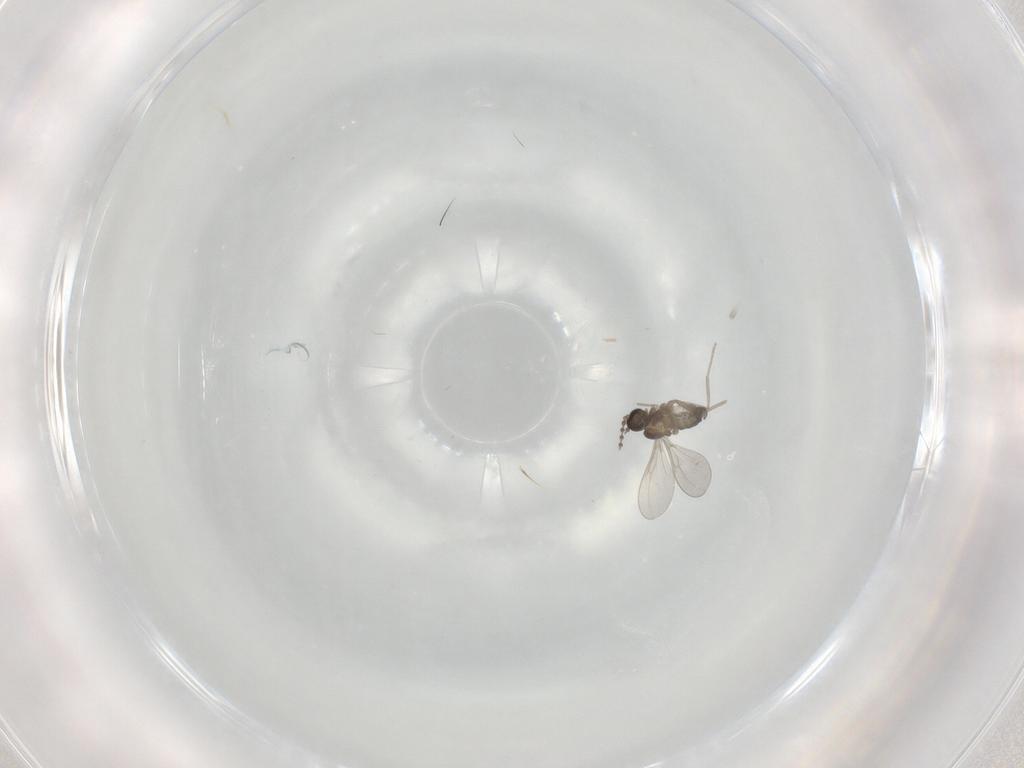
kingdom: Animalia
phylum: Arthropoda
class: Insecta
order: Diptera
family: Cecidomyiidae
